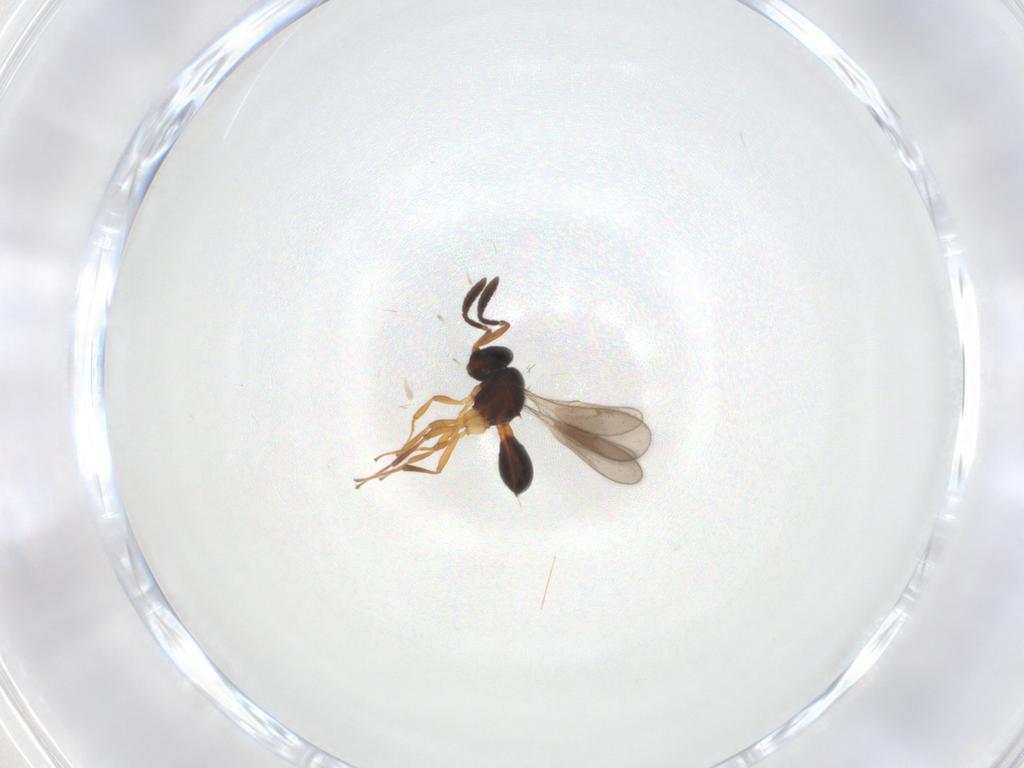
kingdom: Animalia
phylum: Arthropoda
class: Insecta
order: Hymenoptera
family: Scelionidae
